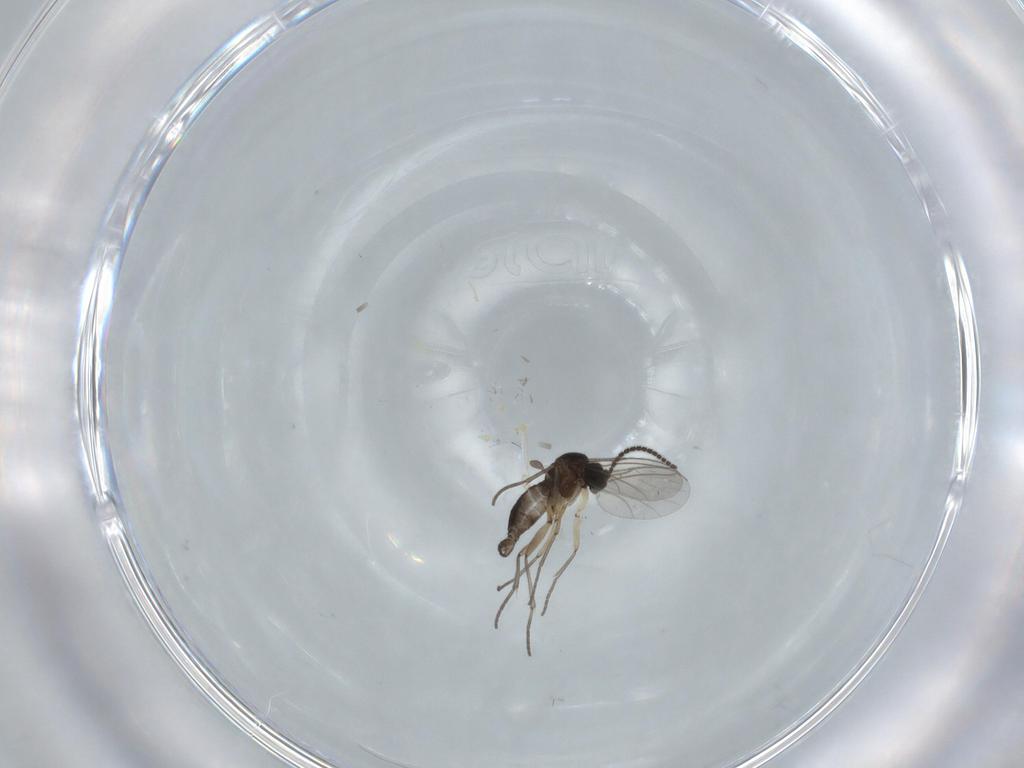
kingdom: Animalia
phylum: Arthropoda
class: Insecta
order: Diptera
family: Sciaridae
